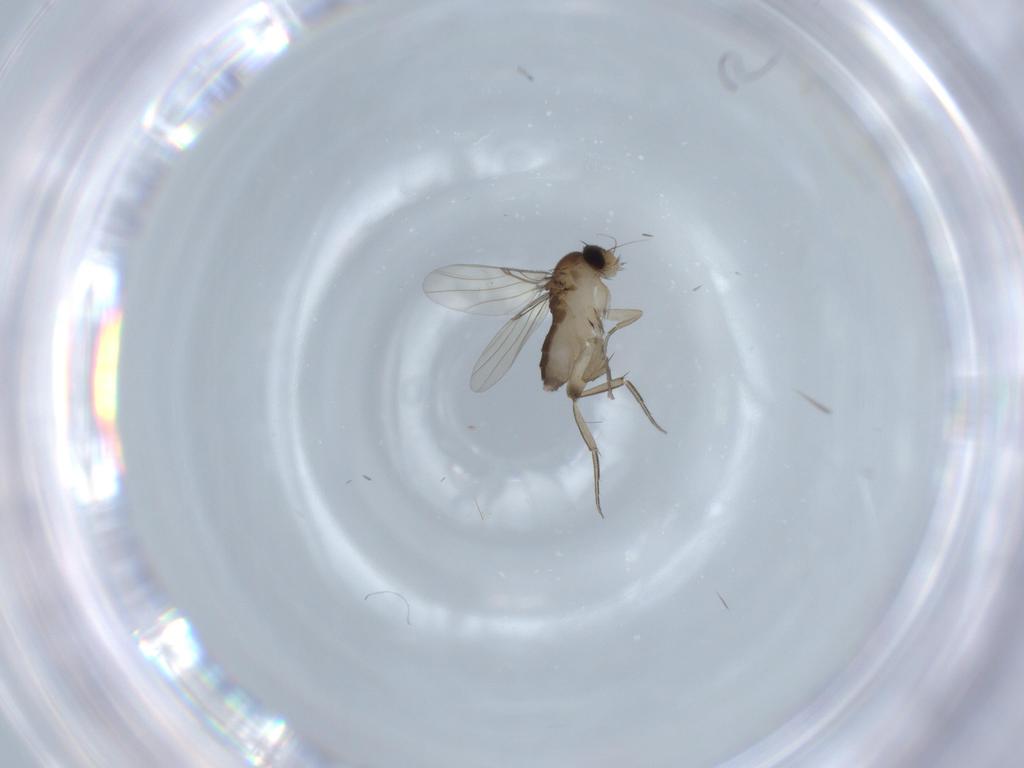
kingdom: Animalia
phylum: Arthropoda
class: Insecta
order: Diptera
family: Phoridae
